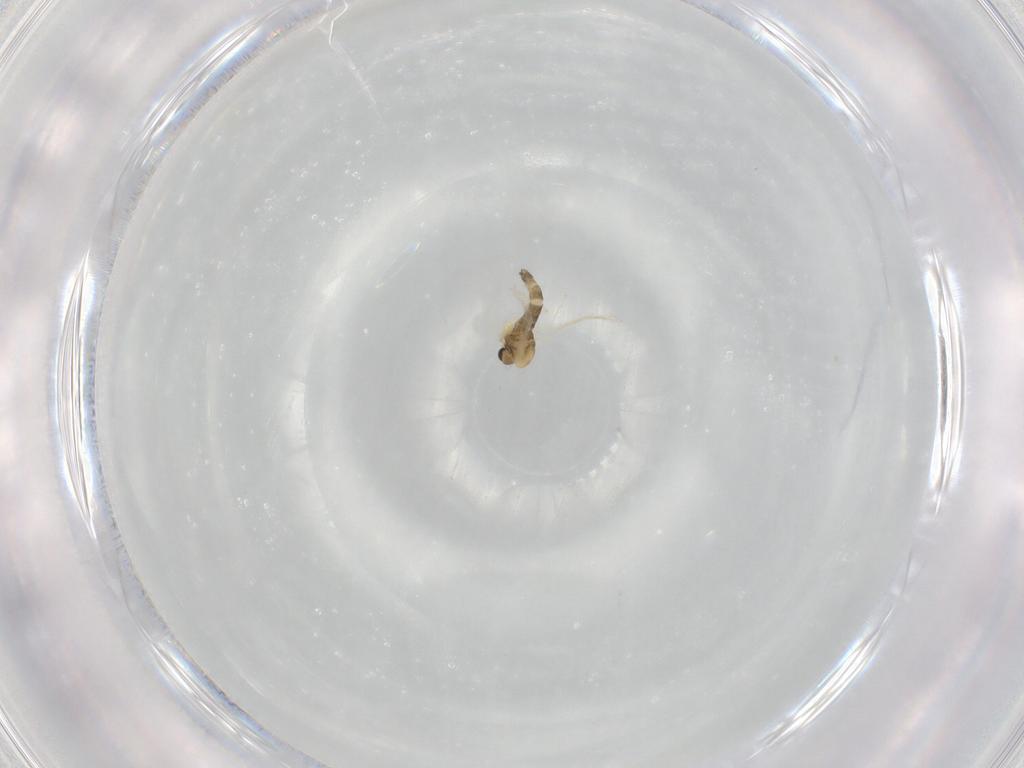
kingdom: Animalia
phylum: Arthropoda
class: Insecta
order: Diptera
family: Chironomidae
